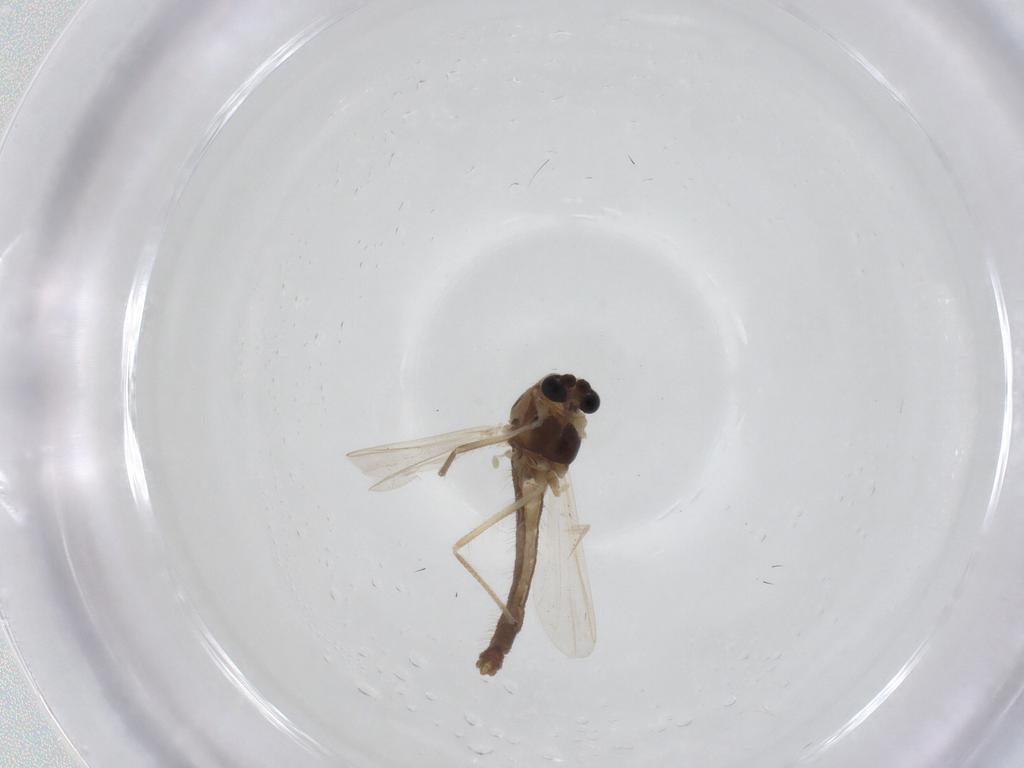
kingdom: Animalia
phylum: Arthropoda
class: Insecta
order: Diptera
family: Chironomidae
